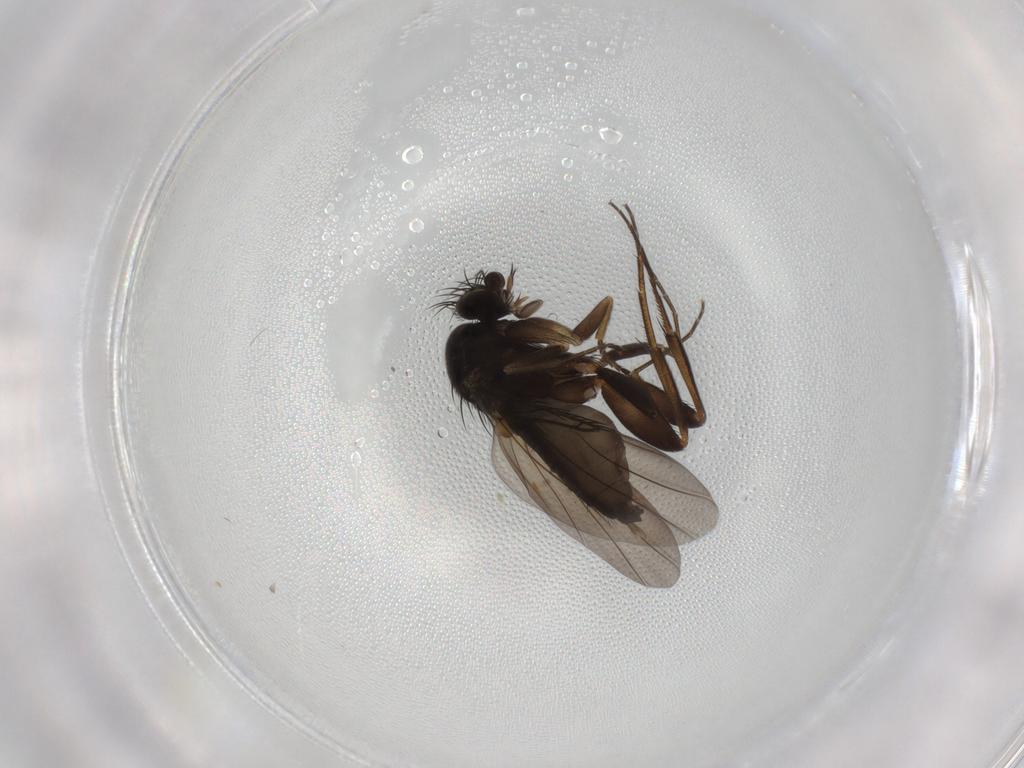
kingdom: Animalia
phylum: Arthropoda
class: Insecta
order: Diptera
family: Phoridae
